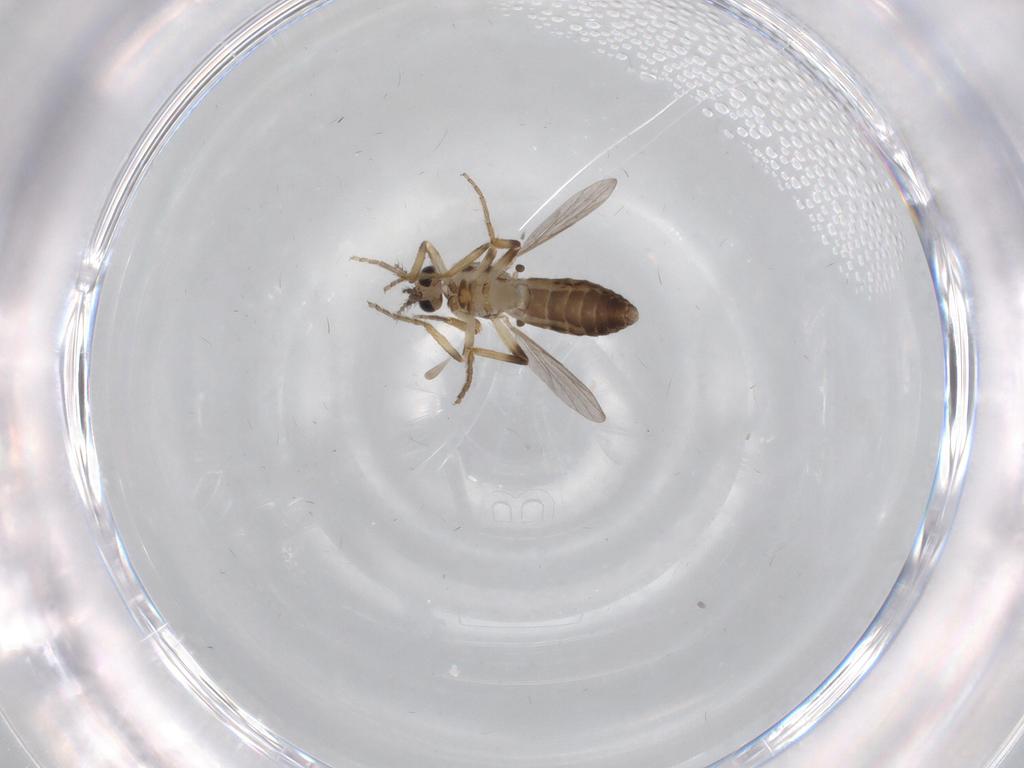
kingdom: Animalia
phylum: Arthropoda
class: Insecta
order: Diptera
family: Ceratopogonidae
